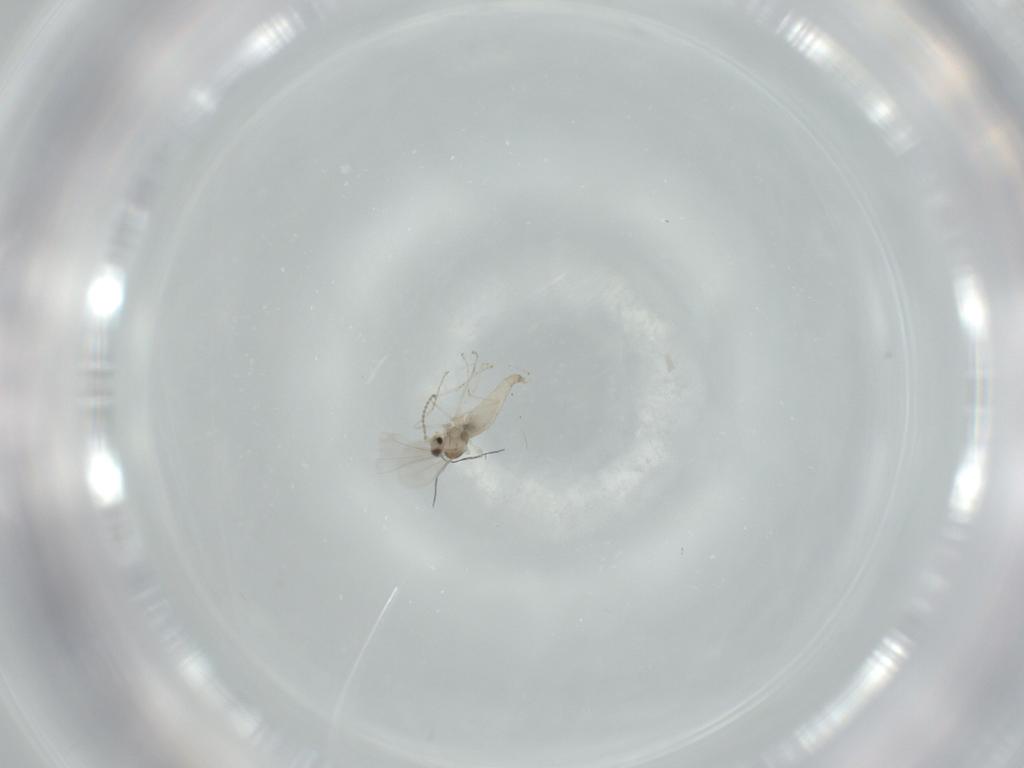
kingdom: Animalia
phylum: Arthropoda
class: Insecta
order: Diptera
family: Cecidomyiidae
